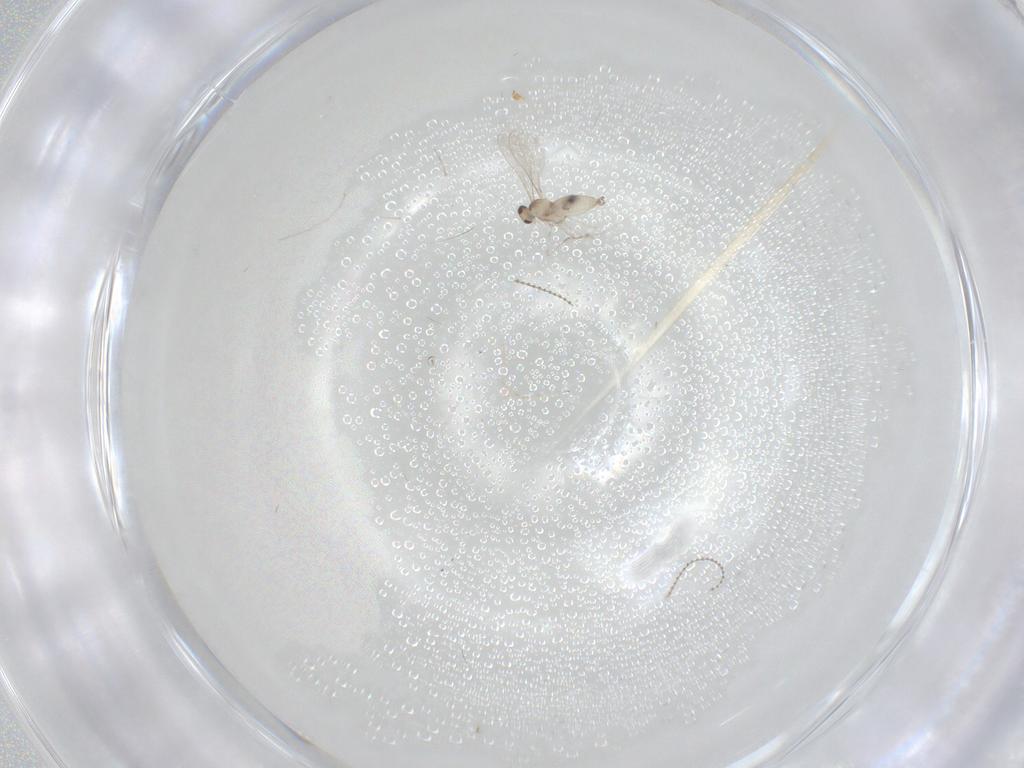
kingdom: Animalia
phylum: Arthropoda
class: Insecta
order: Diptera
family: Cecidomyiidae
